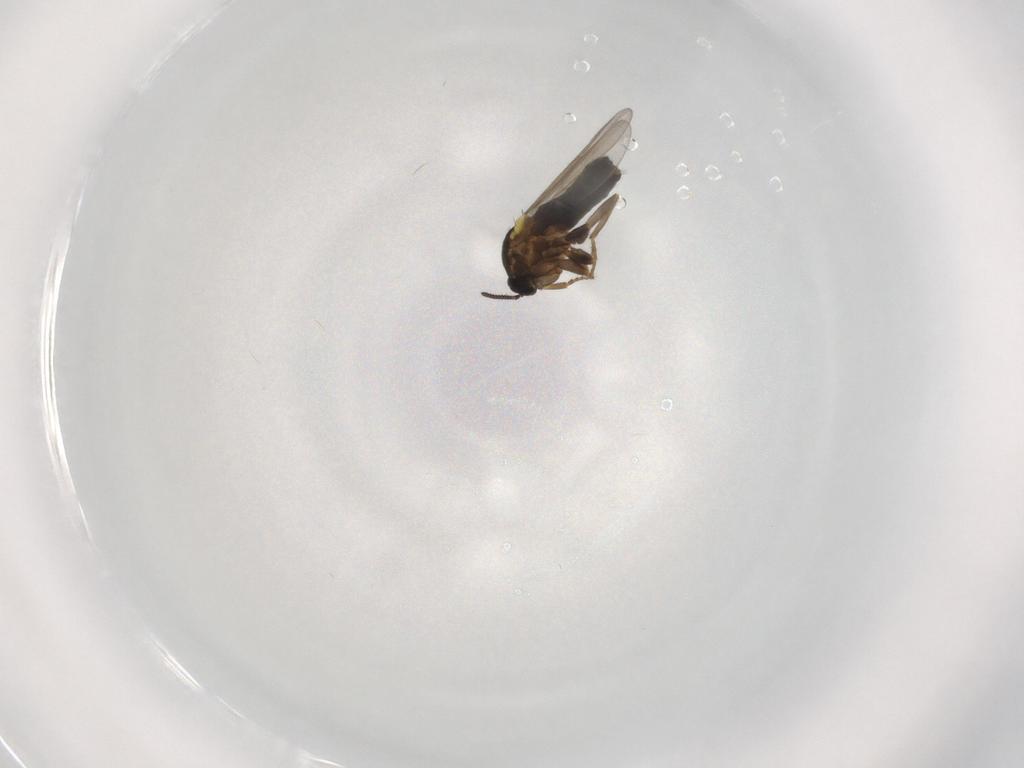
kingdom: Animalia
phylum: Arthropoda
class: Insecta
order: Diptera
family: Scatopsidae
